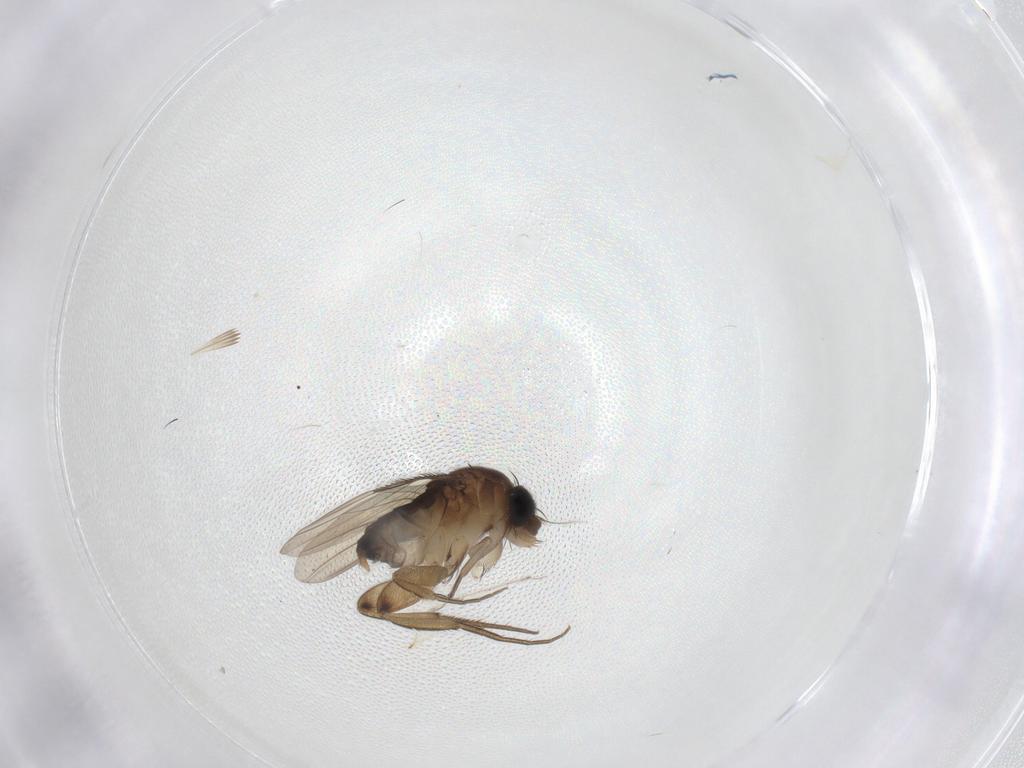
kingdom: Animalia
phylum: Arthropoda
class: Insecta
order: Diptera
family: Phoridae
